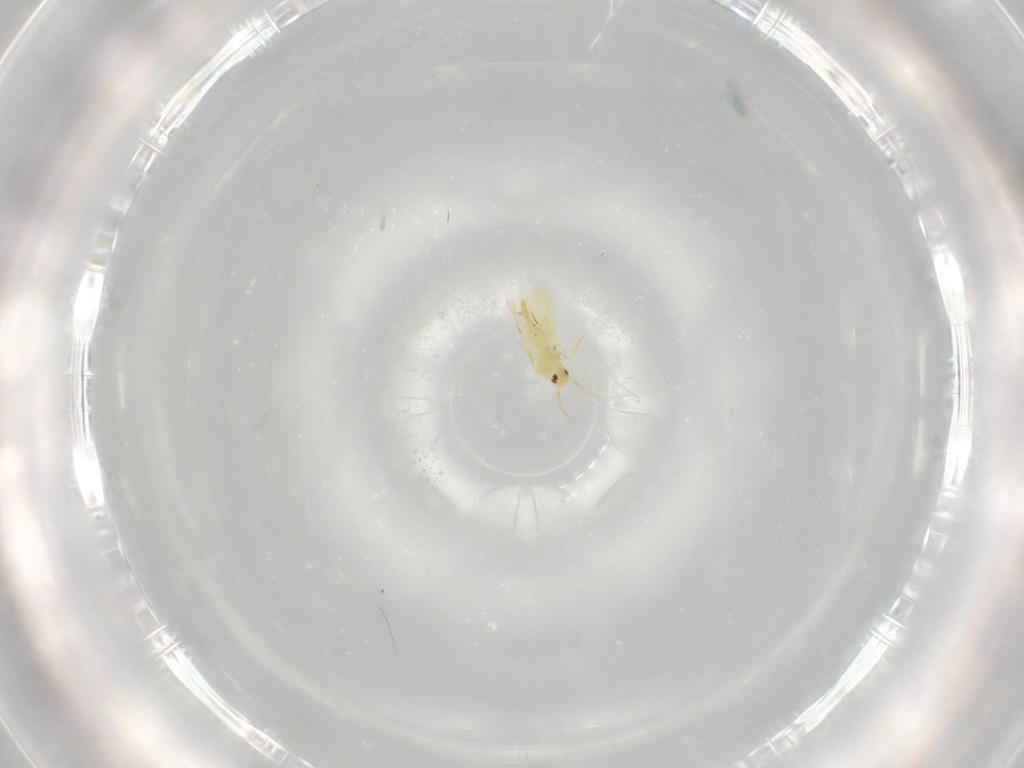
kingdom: Animalia
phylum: Arthropoda
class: Insecta
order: Hemiptera
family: Aleyrodidae
